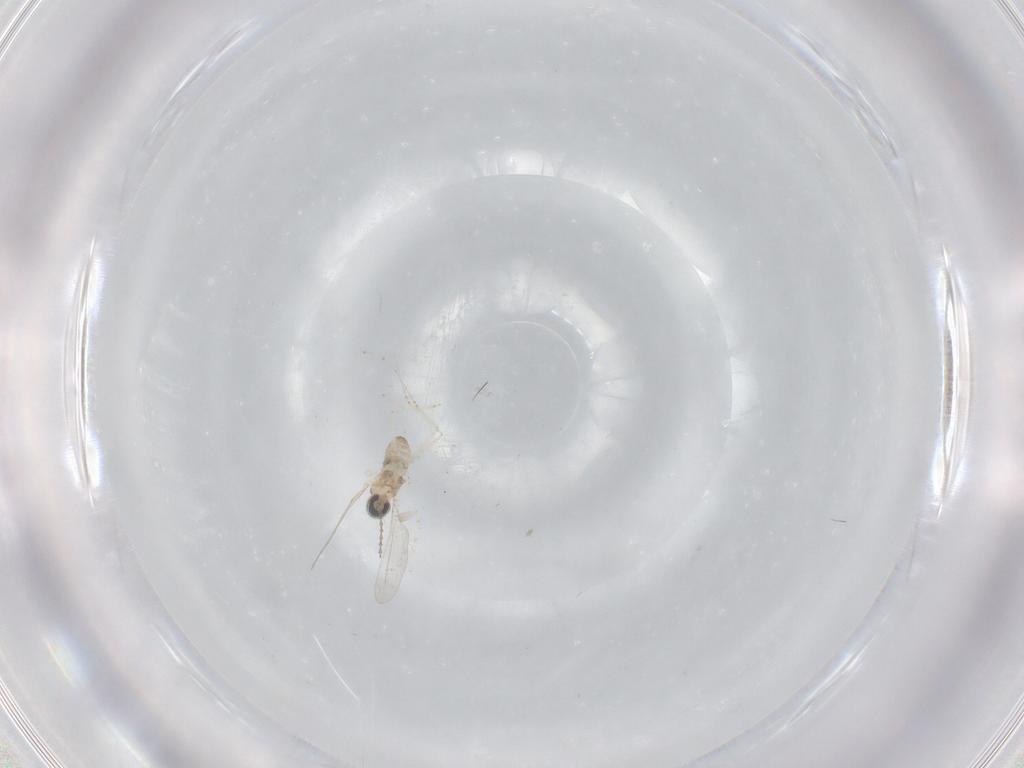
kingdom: Animalia
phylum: Arthropoda
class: Insecta
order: Diptera
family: Cecidomyiidae
